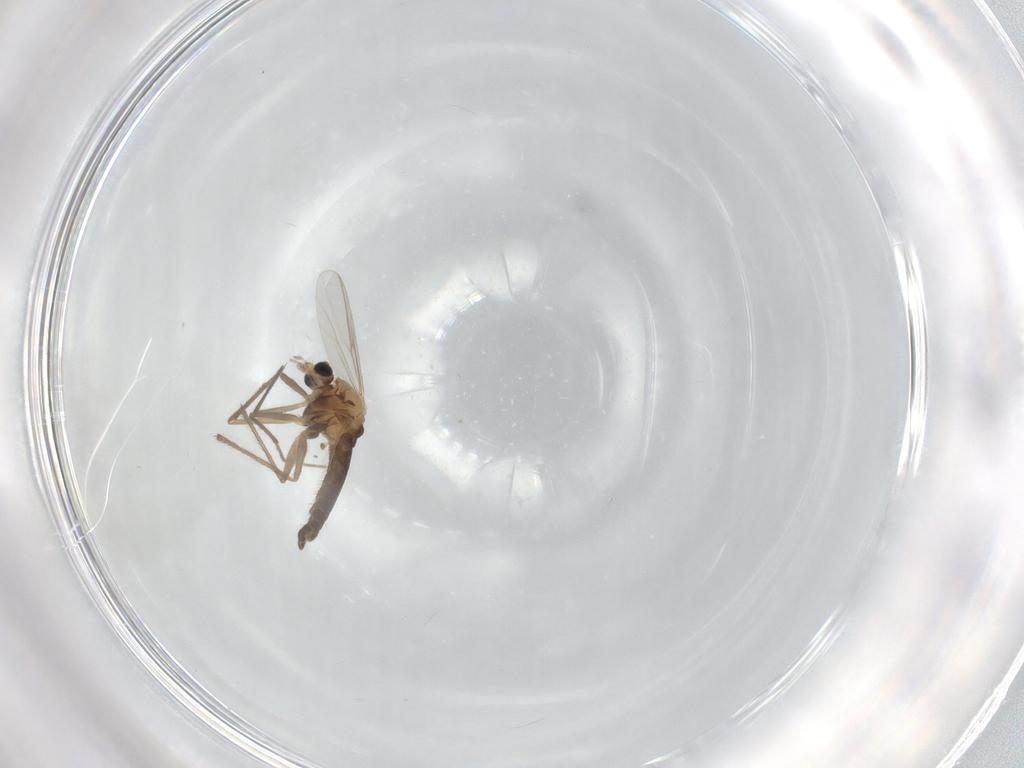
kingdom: Animalia
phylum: Arthropoda
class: Insecta
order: Diptera
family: Chironomidae
